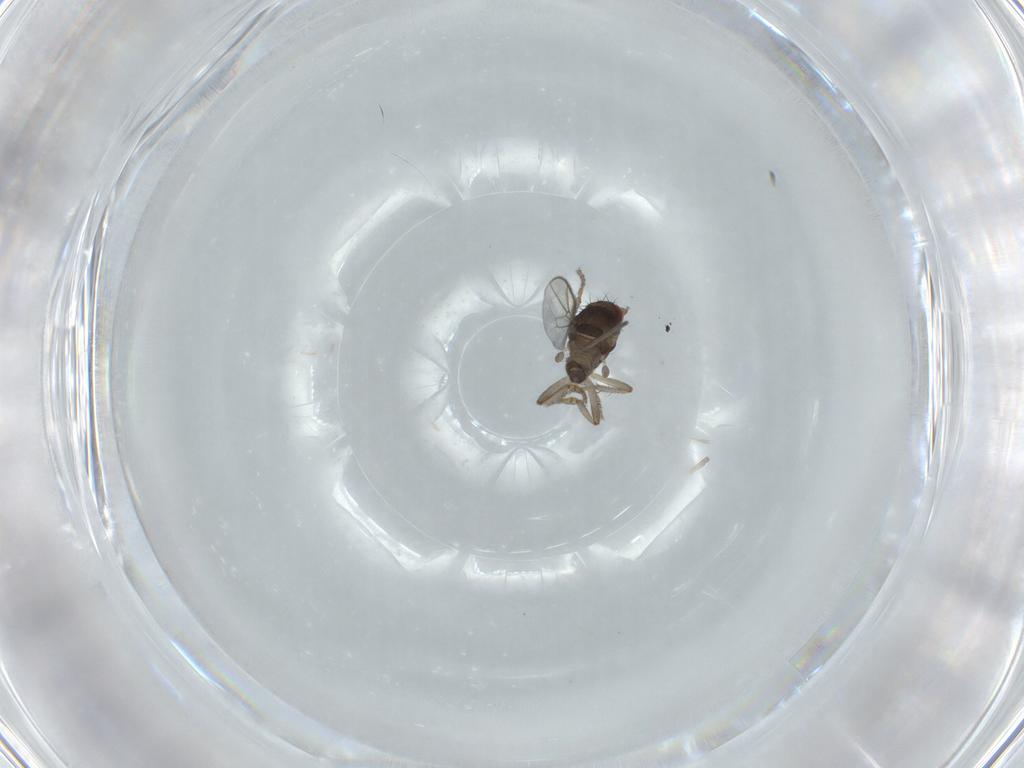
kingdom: Animalia
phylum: Arthropoda
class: Insecta
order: Diptera
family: Sphaeroceridae
